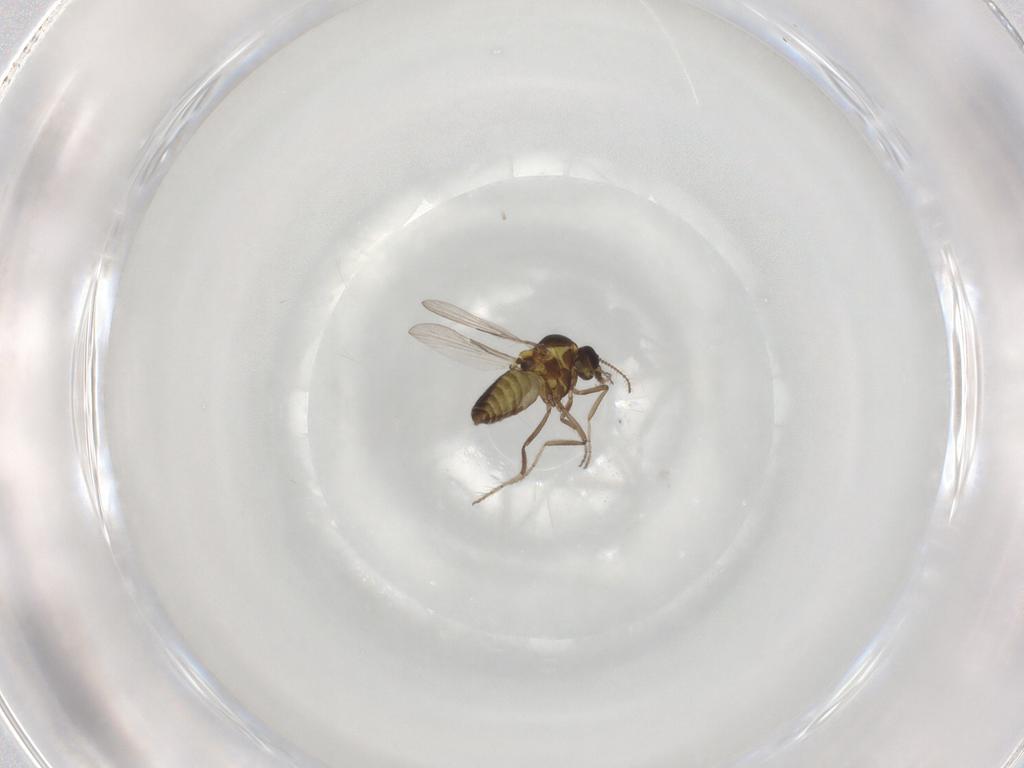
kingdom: Animalia
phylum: Arthropoda
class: Insecta
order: Diptera
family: Ceratopogonidae
